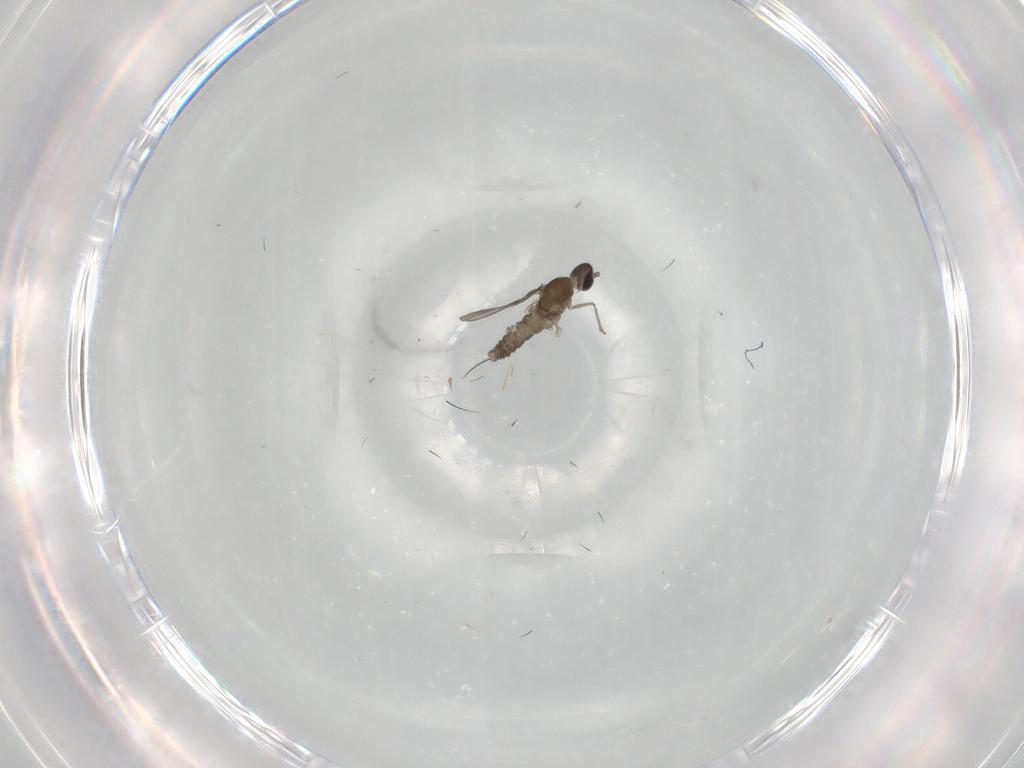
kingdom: Animalia
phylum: Arthropoda
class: Insecta
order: Diptera
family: Cecidomyiidae
